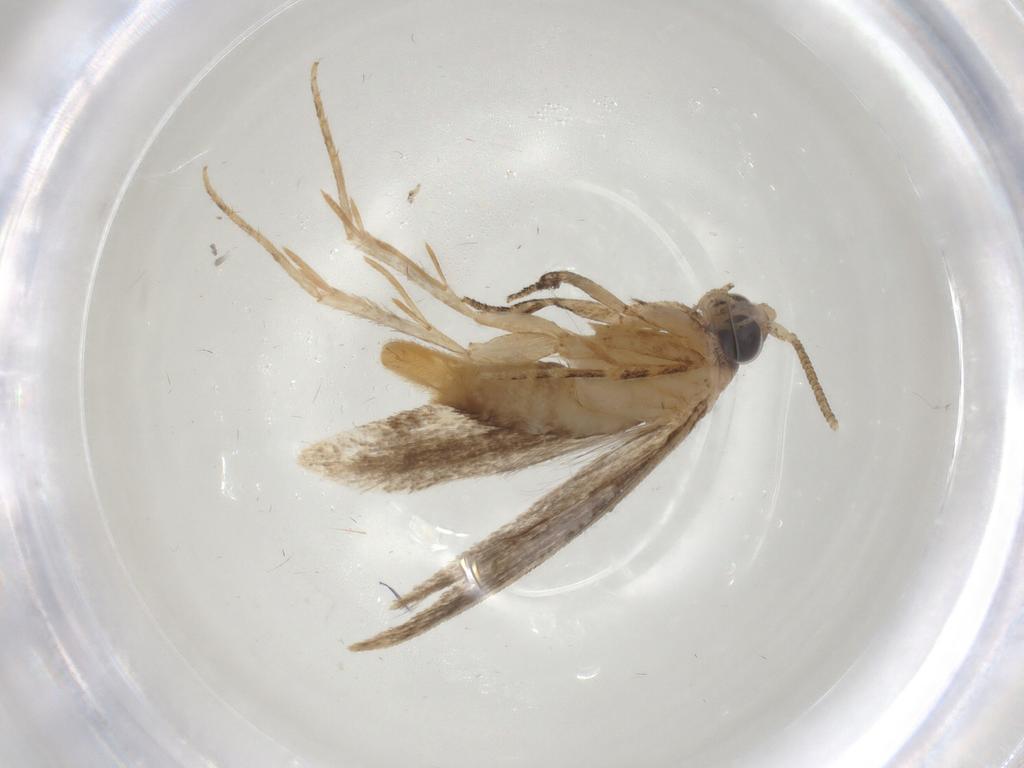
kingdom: Animalia
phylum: Arthropoda
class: Insecta
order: Lepidoptera
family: Tineidae
